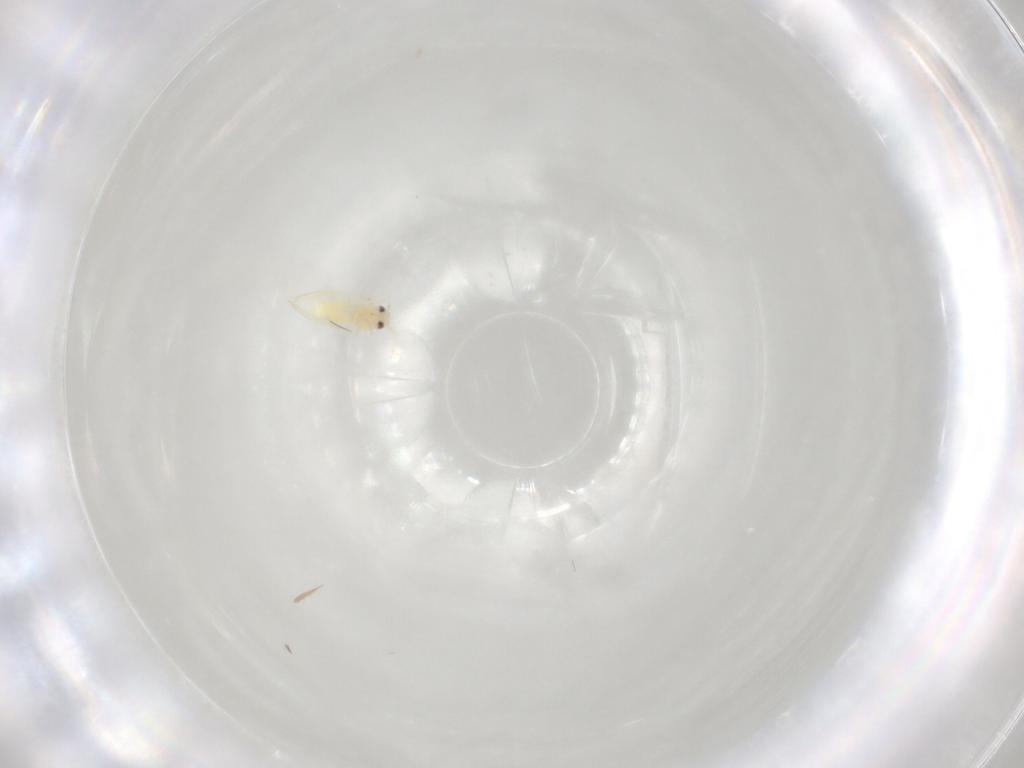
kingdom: Animalia
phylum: Arthropoda
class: Insecta
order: Hemiptera
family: Aleyrodidae
